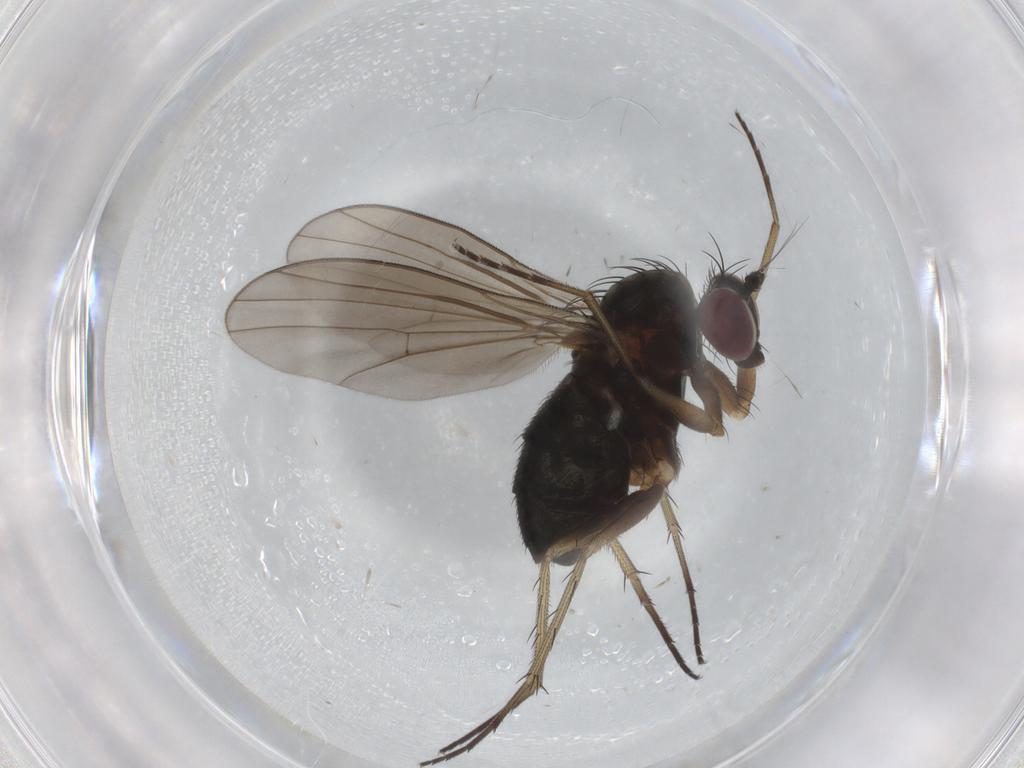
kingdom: Animalia
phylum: Arthropoda
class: Insecta
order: Diptera
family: Dolichopodidae
